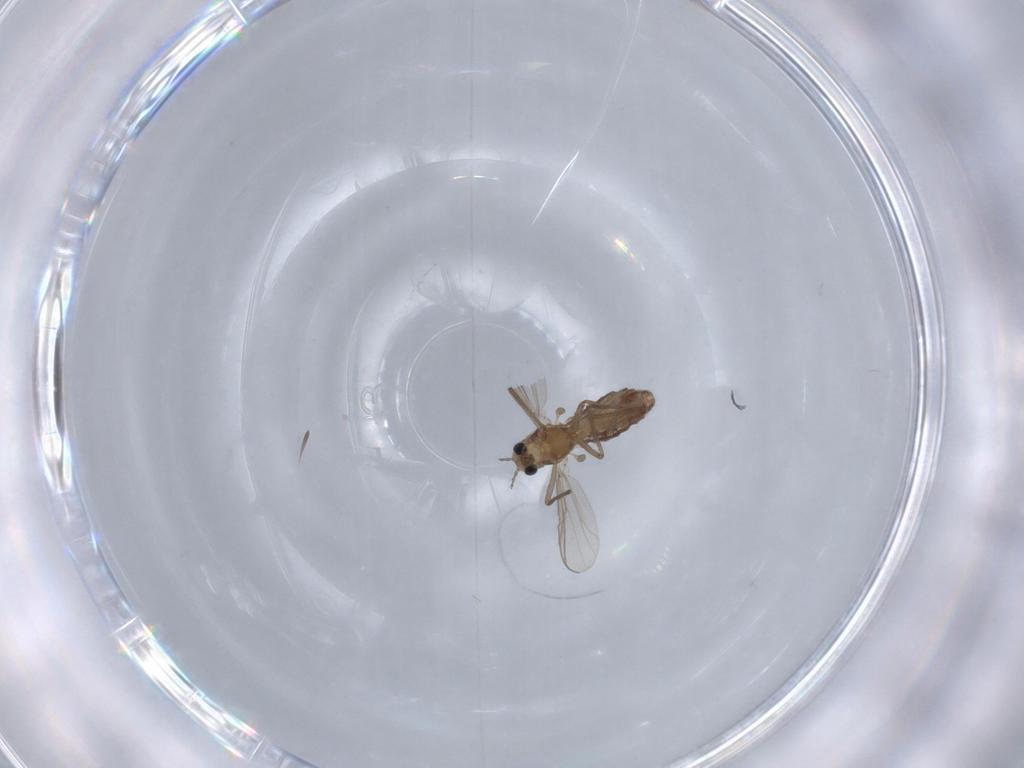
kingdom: Animalia
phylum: Arthropoda
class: Insecta
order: Diptera
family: Chironomidae
